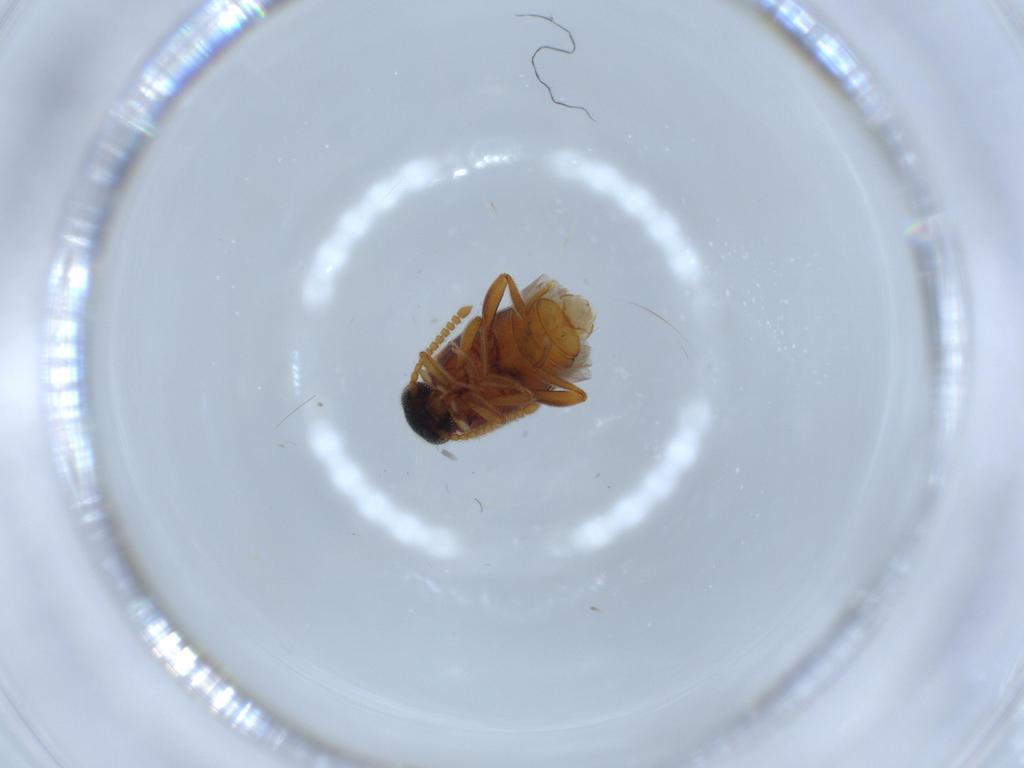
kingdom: Animalia
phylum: Arthropoda
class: Insecta
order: Coleoptera
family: Aderidae
